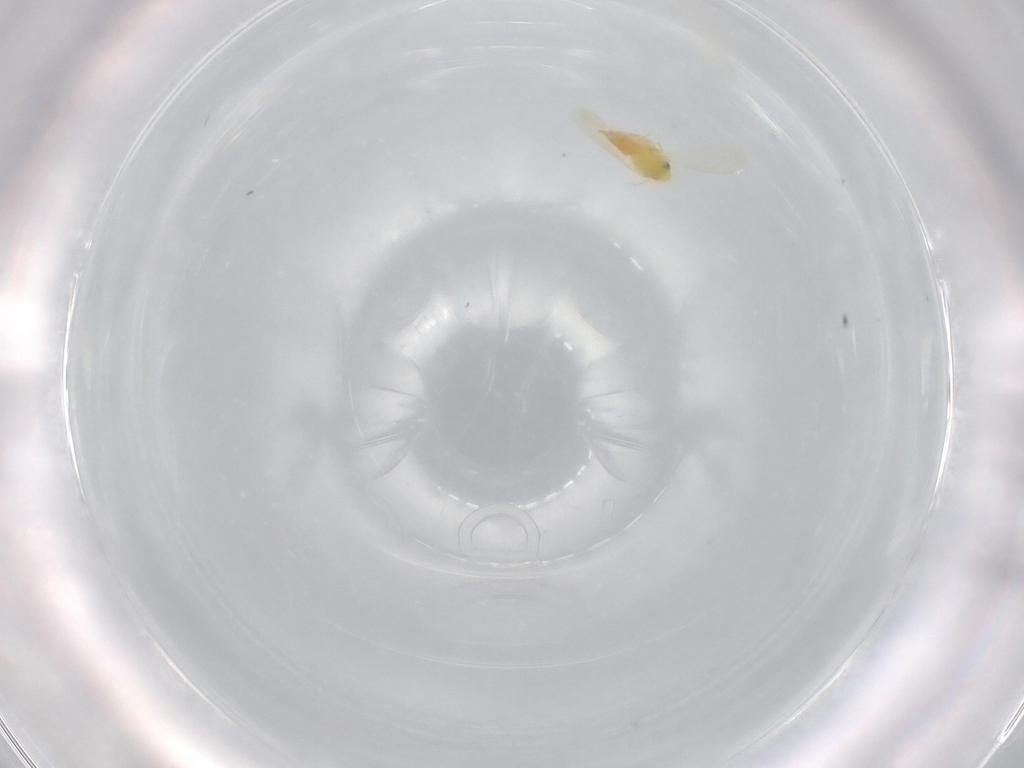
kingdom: Animalia
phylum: Arthropoda
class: Insecta
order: Hemiptera
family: Aleyrodidae
